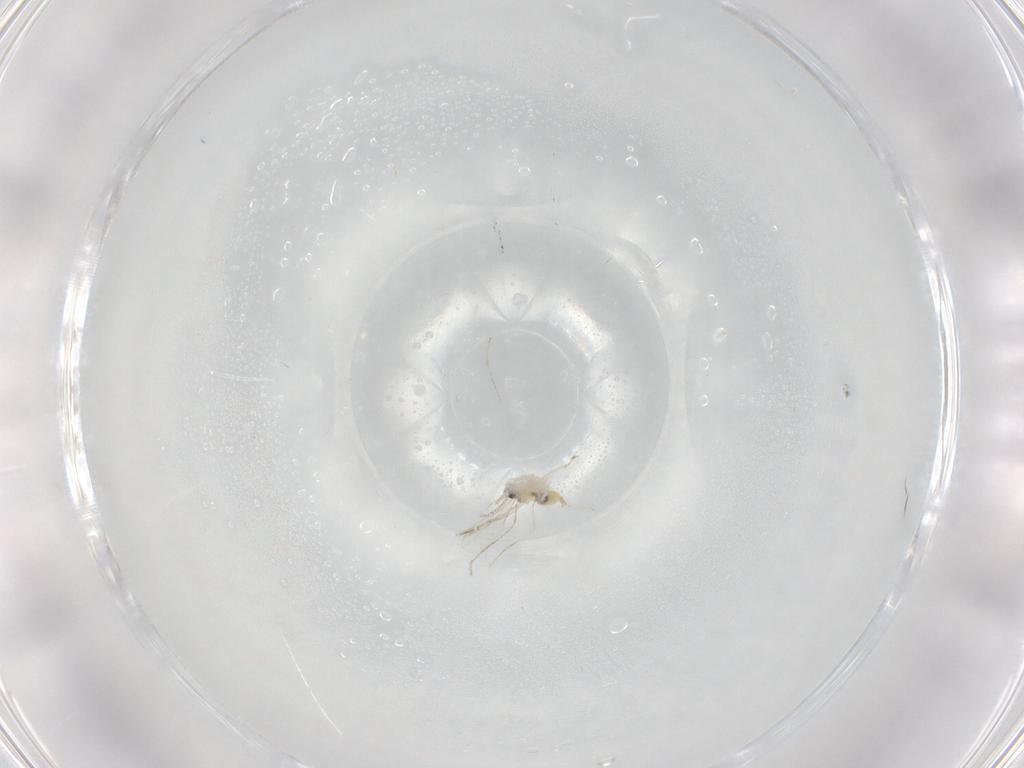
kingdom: Animalia
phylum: Arthropoda
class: Insecta
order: Diptera
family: Cecidomyiidae
